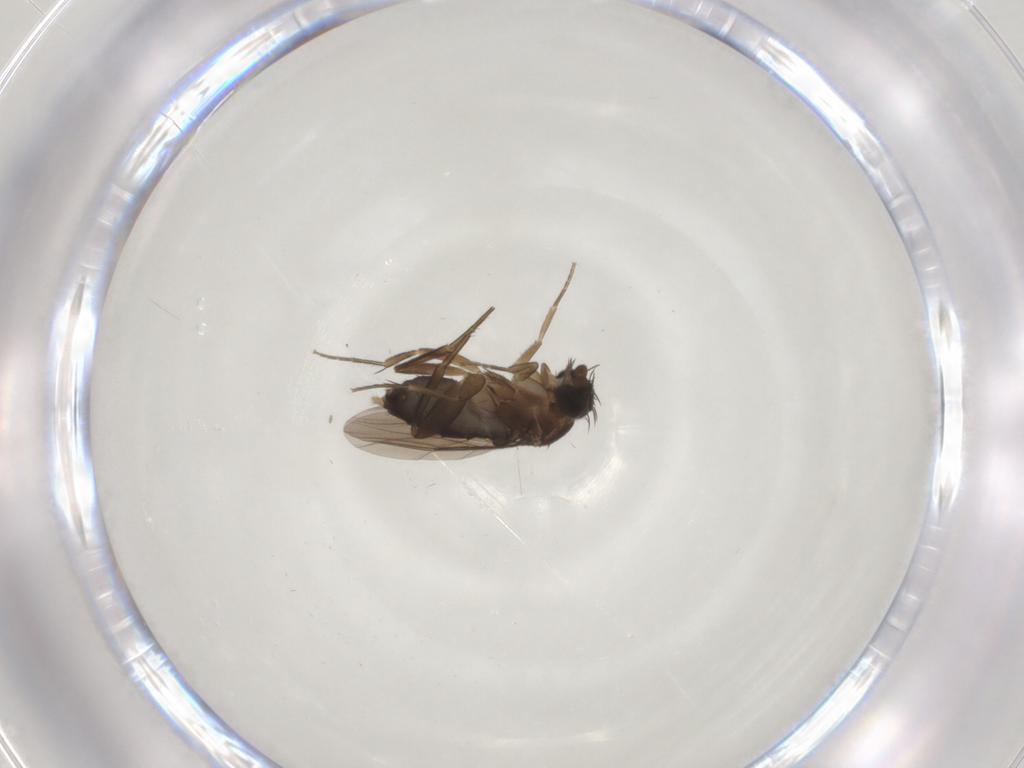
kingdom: Animalia
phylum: Arthropoda
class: Insecta
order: Diptera
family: Phoridae
